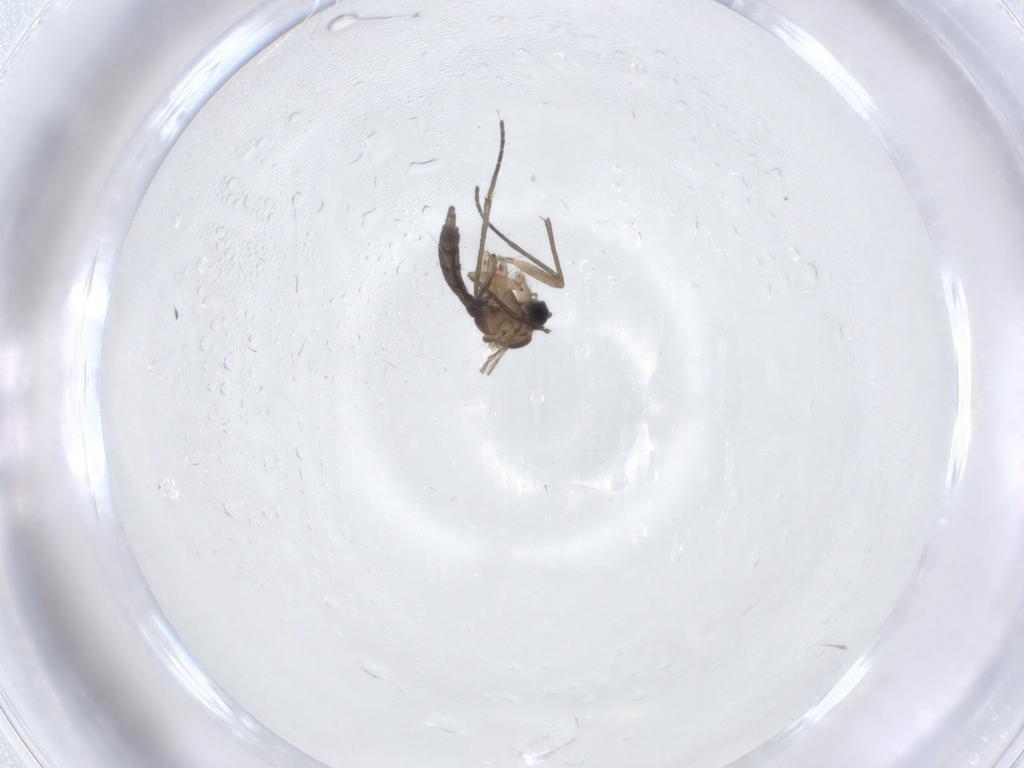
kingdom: Animalia
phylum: Arthropoda
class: Insecta
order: Diptera
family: Sciaridae
